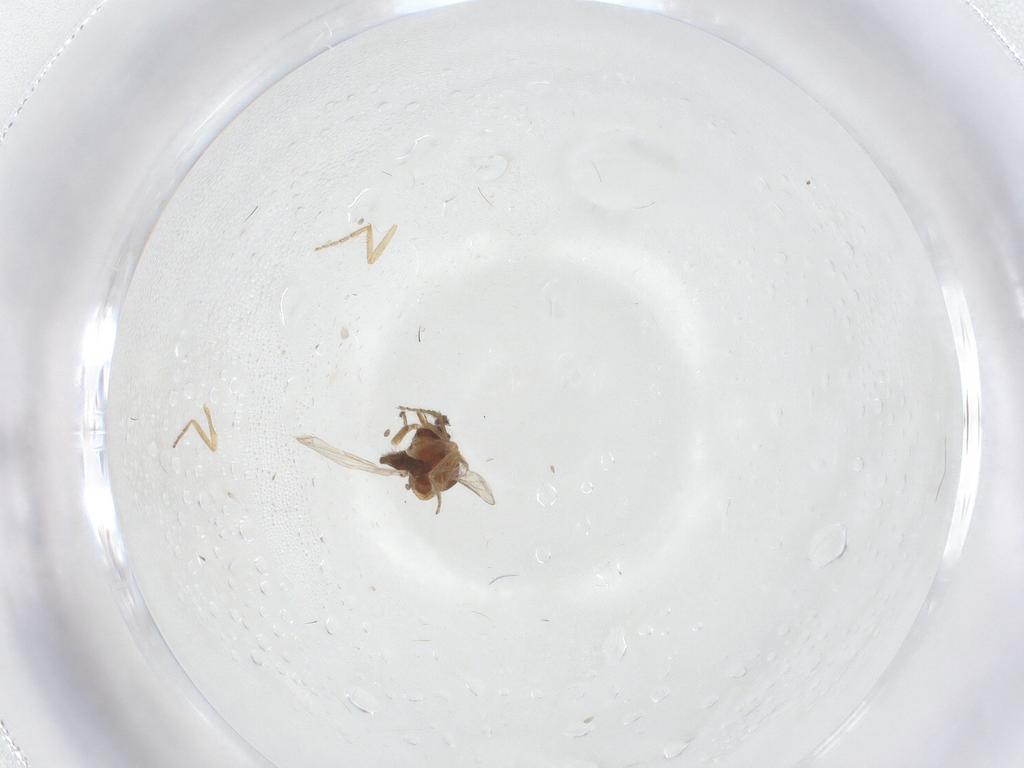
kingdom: Animalia
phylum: Arthropoda
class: Insecta
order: Diptera
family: Ceratopogonidae
